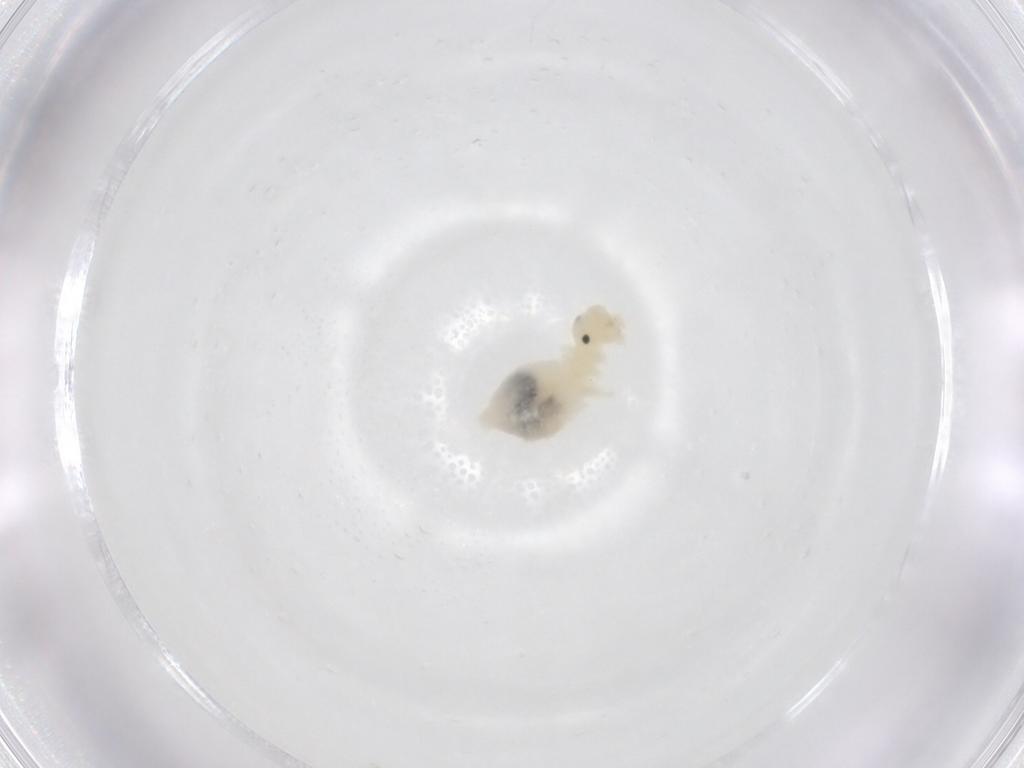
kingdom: Animalia
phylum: Arthropoda
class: Insecta
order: Psocodea
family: Caeciliusidae
